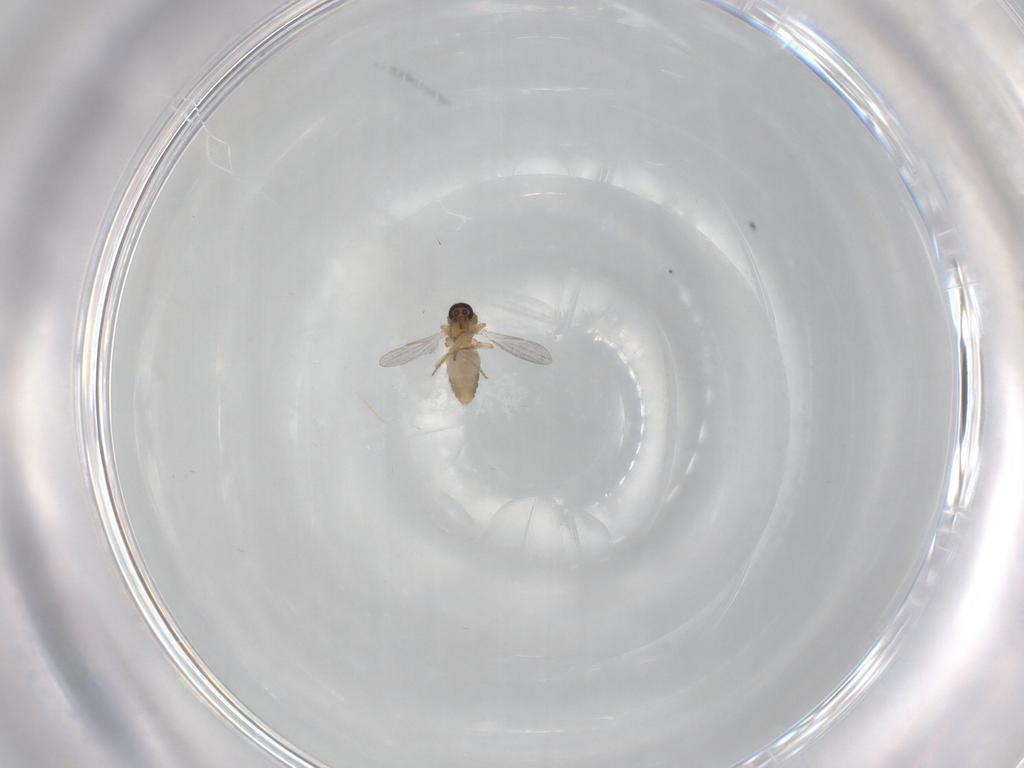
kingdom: Animalia
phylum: Arthropoda
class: Insecta
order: Diptera
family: Ceratopogonidae
